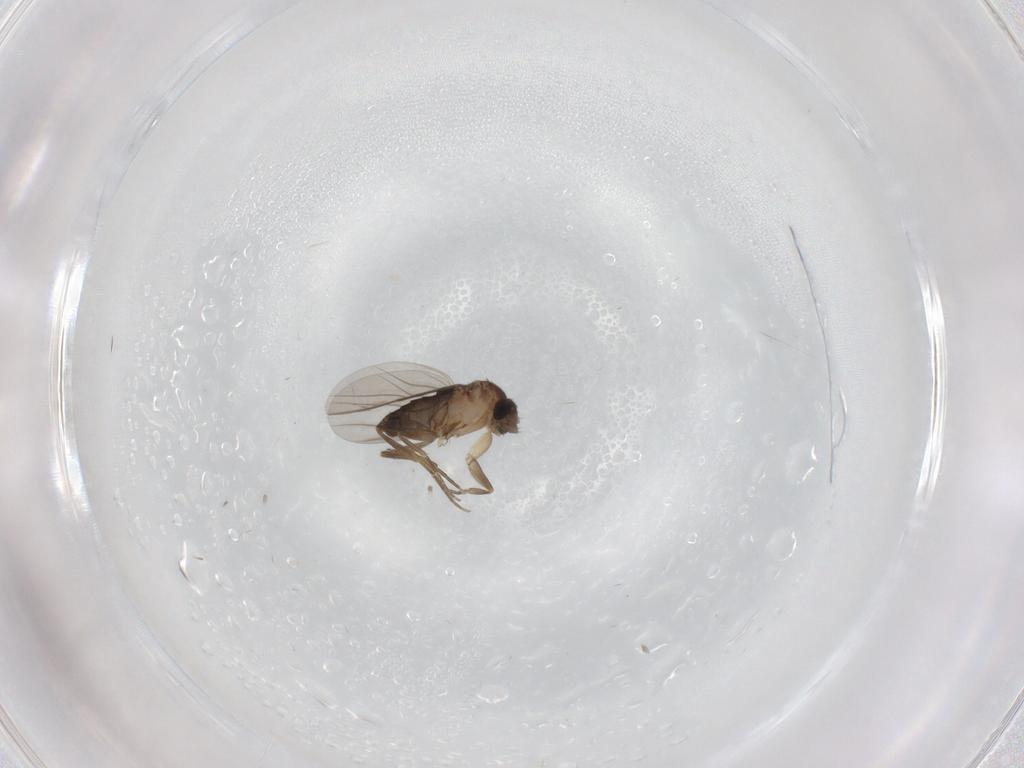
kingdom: Animalia
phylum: Arthropoda
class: Insecta
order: Diptera
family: Phoridae
